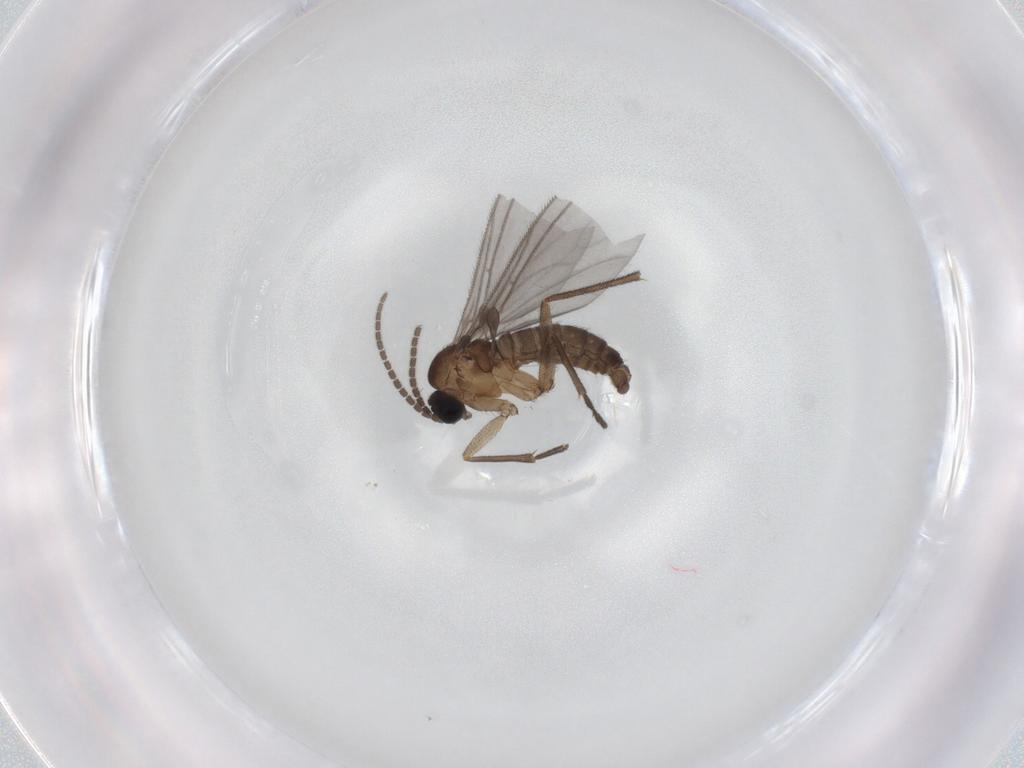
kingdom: Animalia
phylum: Arthropoda
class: Insecta
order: Diptera
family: Sciaridae
